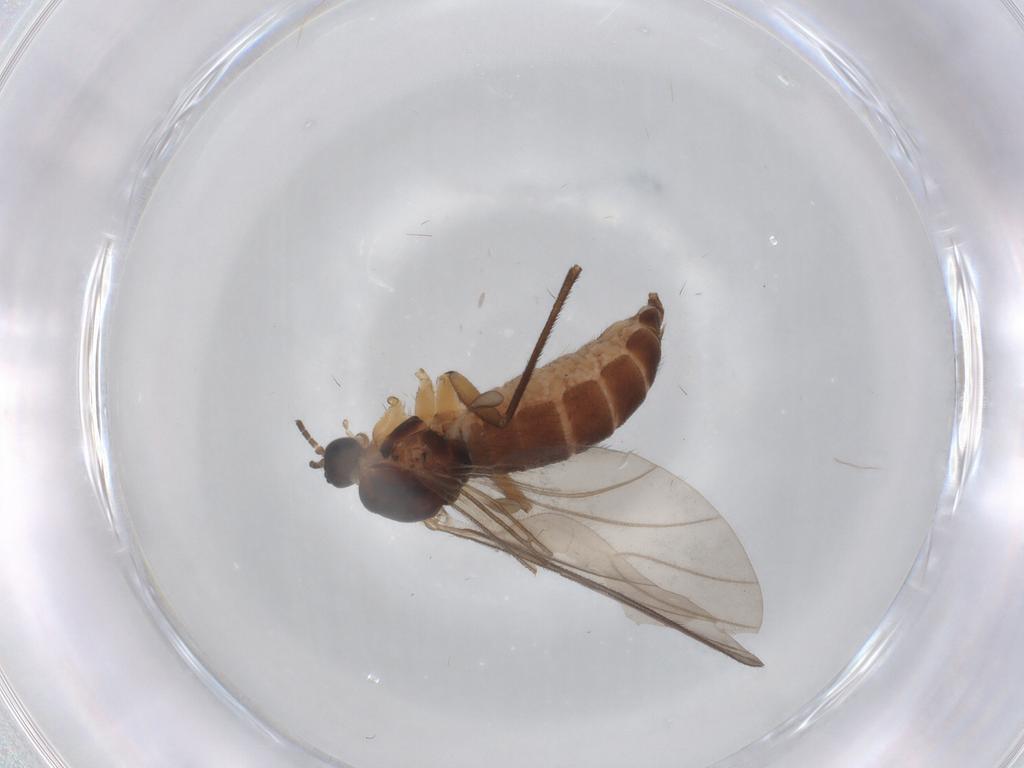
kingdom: Animalia
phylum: Arthropoda
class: Insecta
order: Diptera
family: Sciaridae
